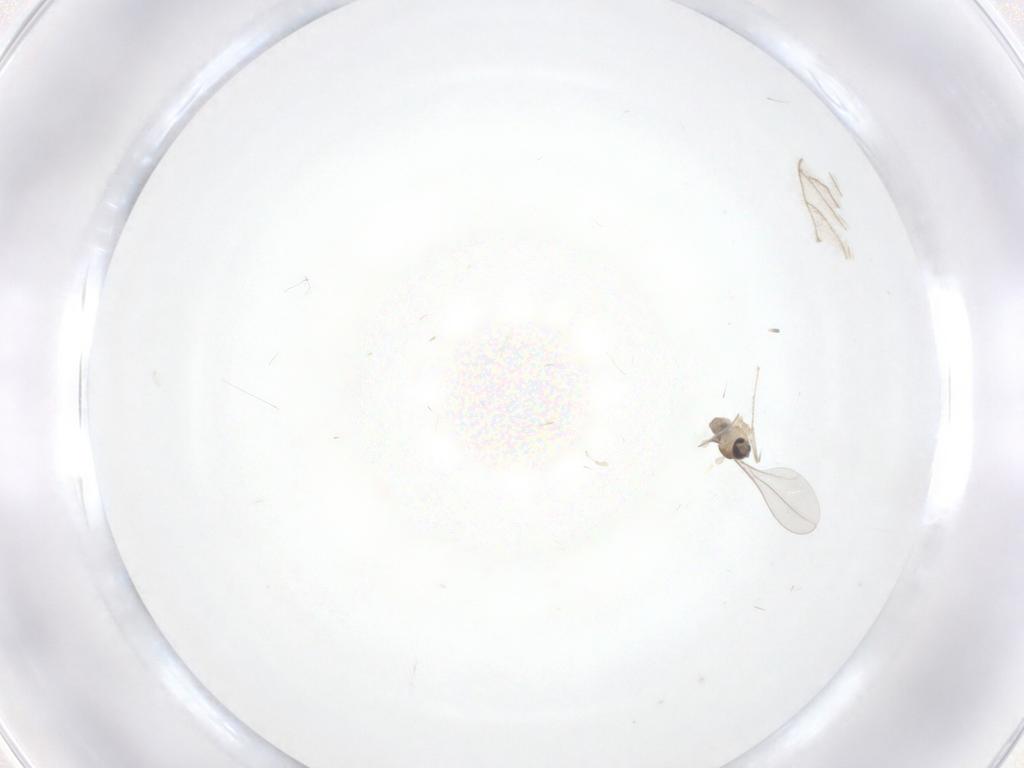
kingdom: Animalia
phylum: Arthropoda
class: Insecta
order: Diptera
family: Cecidomyiidae
